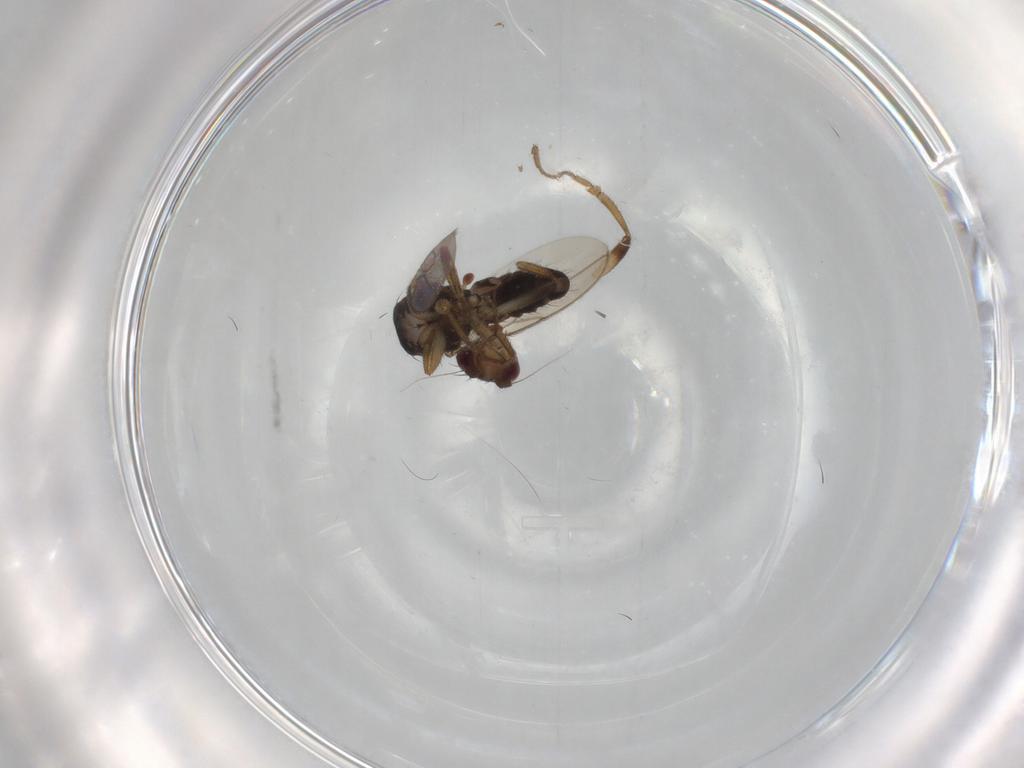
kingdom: Animalia
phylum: Arthropoda
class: Insecta
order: Diptera
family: Sphaeroceridae
